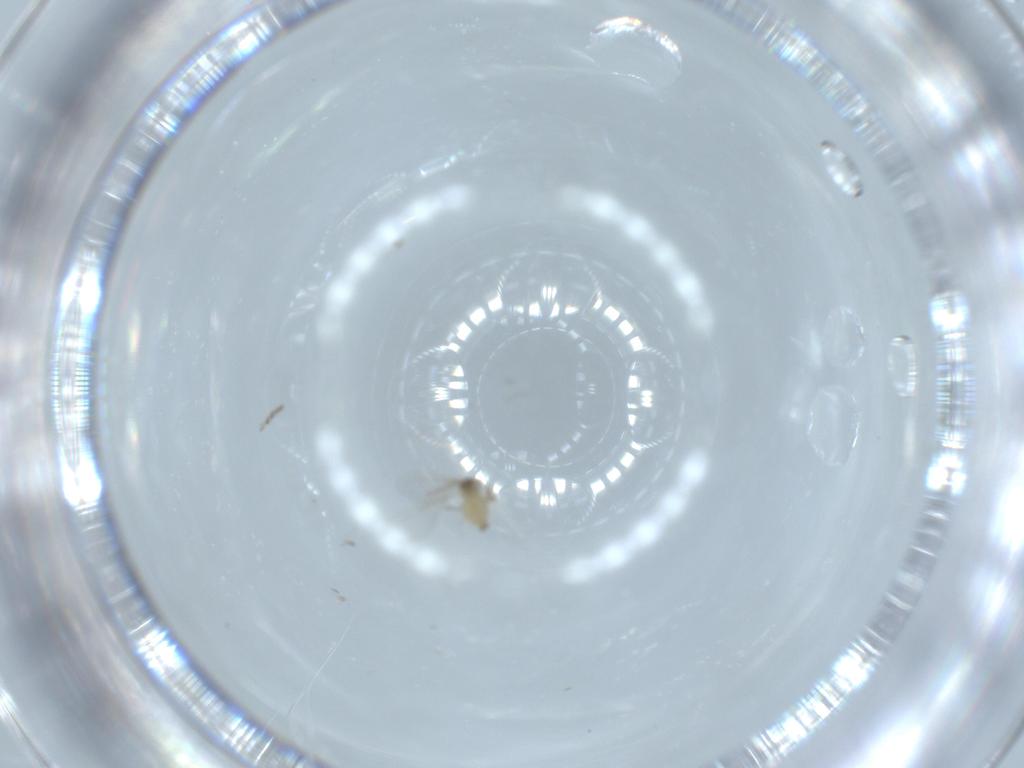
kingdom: Animalia
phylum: Arthropoda
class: Insecta
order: Diptera
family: Cecidomyiidae
